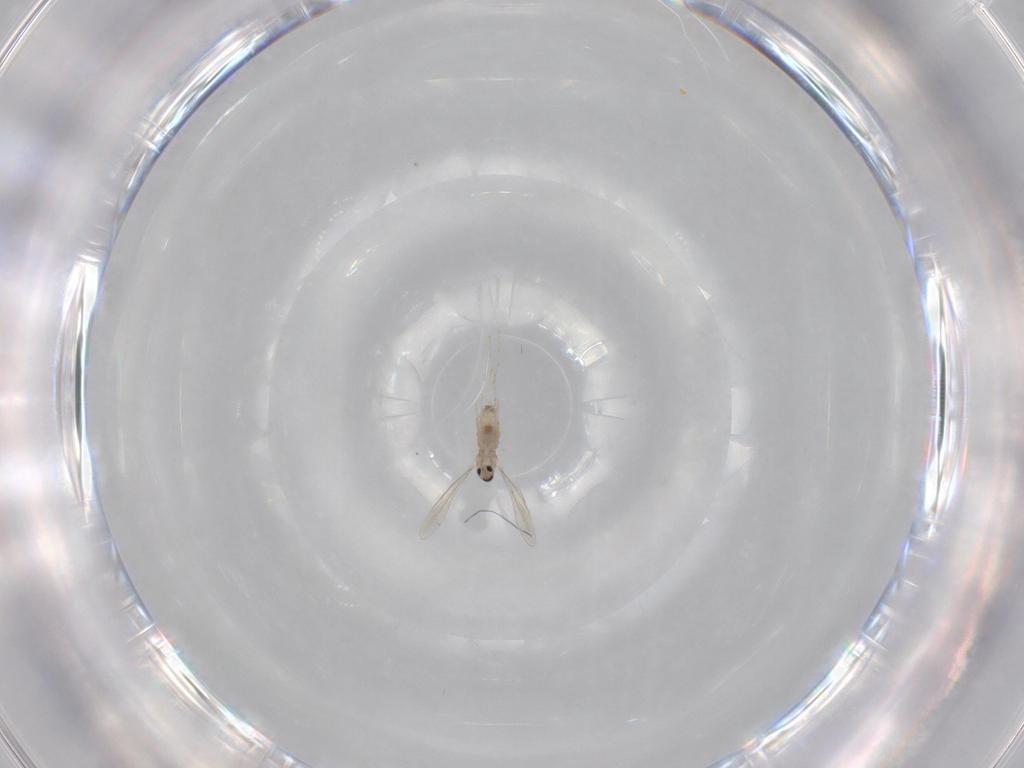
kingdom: Animalia
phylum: Arthropoda
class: Insecta
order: Diptera
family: Cecidomyiidae
